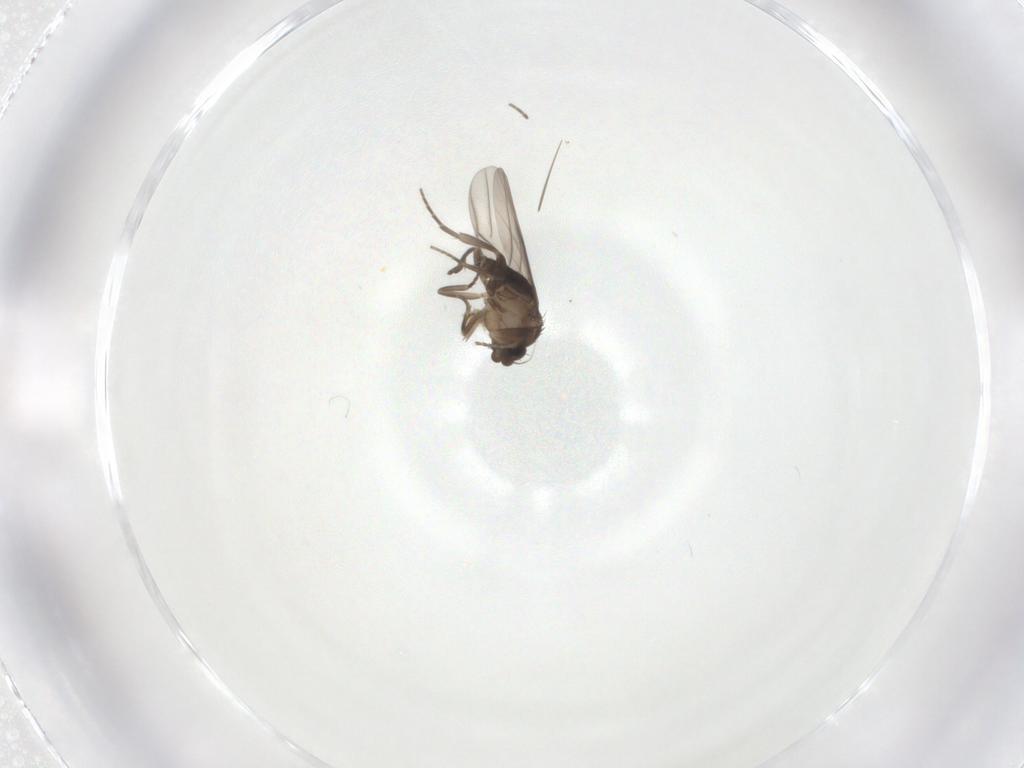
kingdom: Animalia
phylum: Arthropoda
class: Insecta
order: Diptera
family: Phoridae
